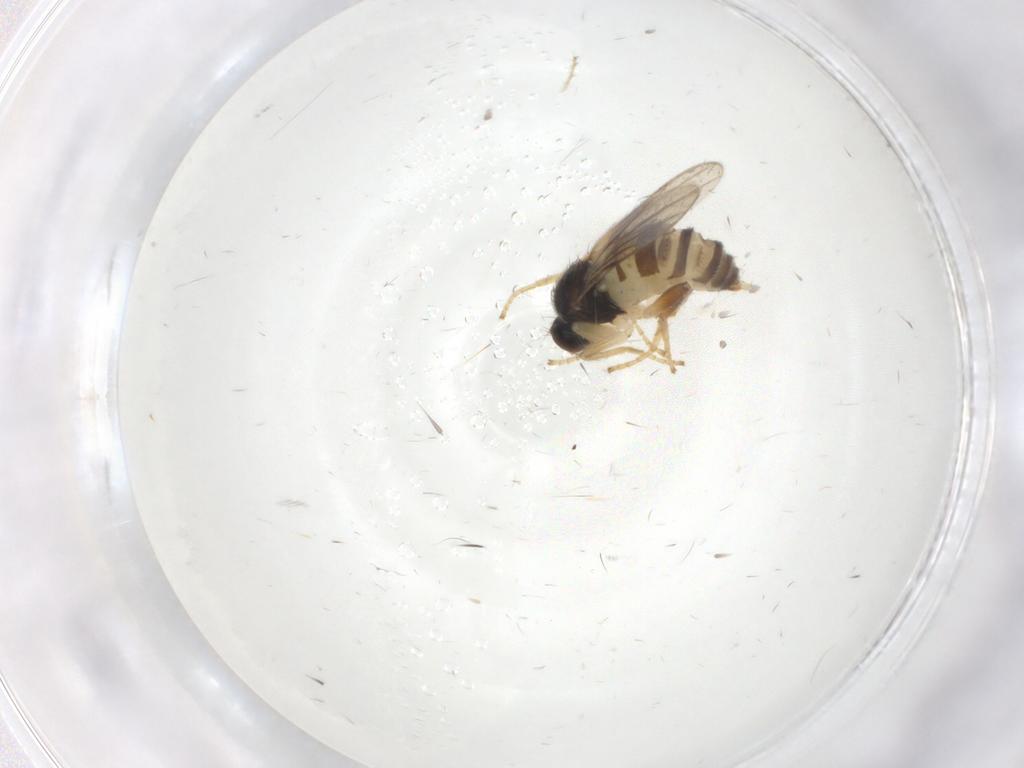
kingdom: Animalia
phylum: Arthropoda
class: Insecta
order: Diptera
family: Hybotidae
